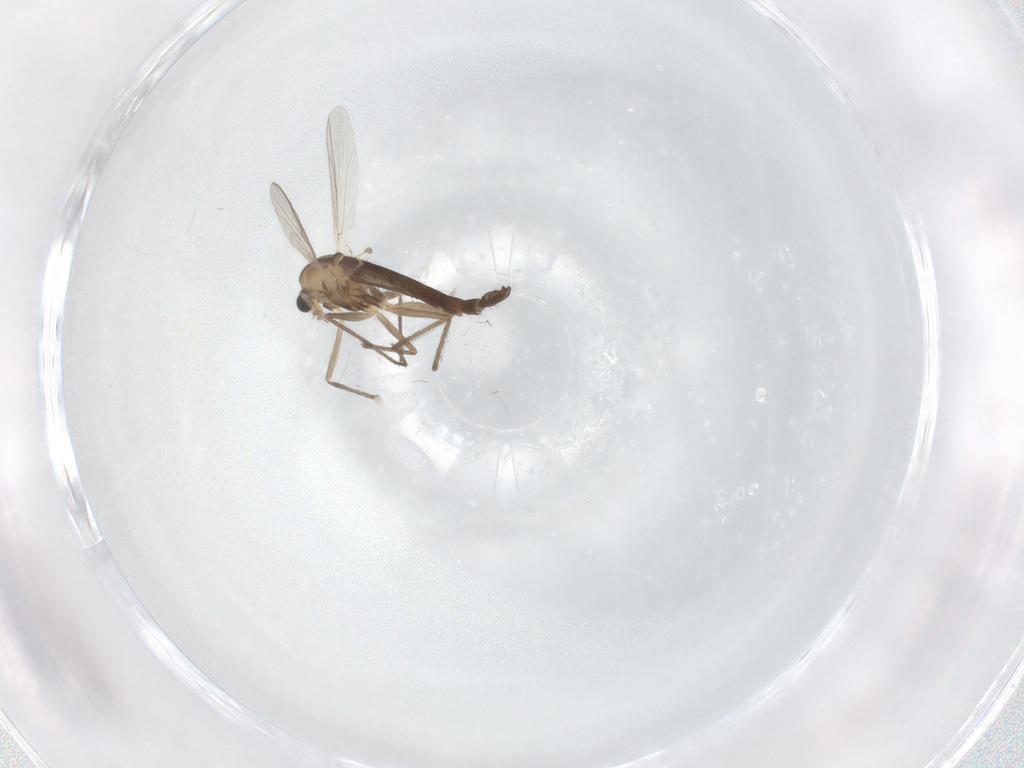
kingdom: Animalia
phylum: Arthropoda
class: Insecta
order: Diptera
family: Chironomidae
